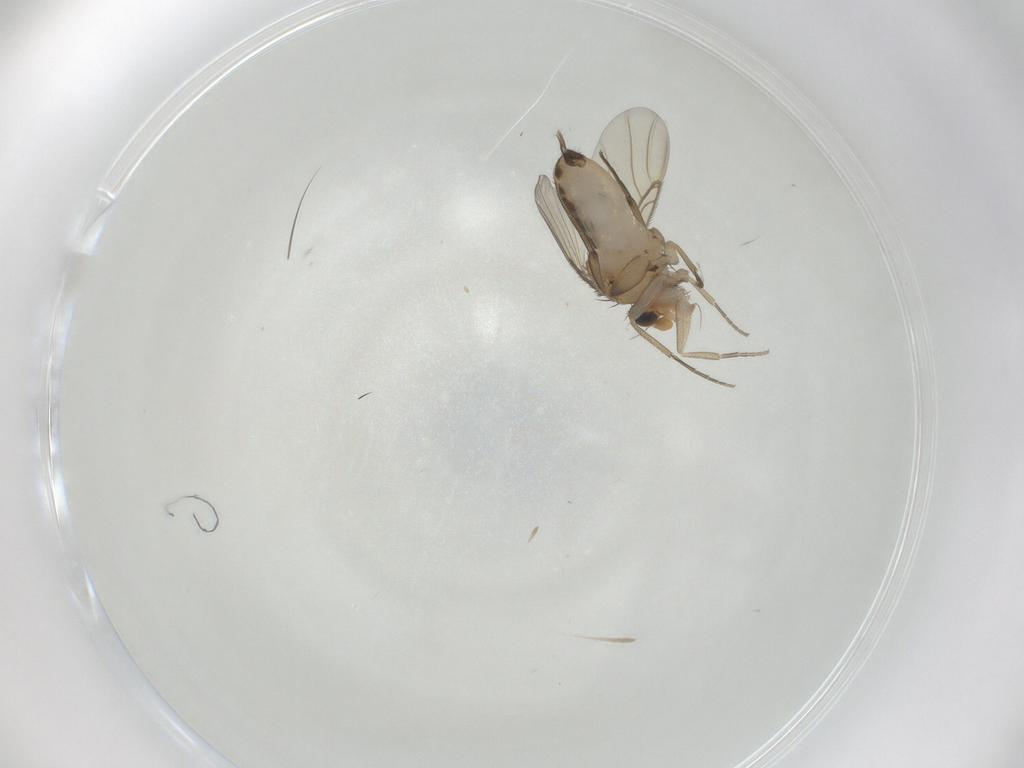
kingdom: Animalia
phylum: Arthropoda
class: Insecta
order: Diptera
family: Phoridae
